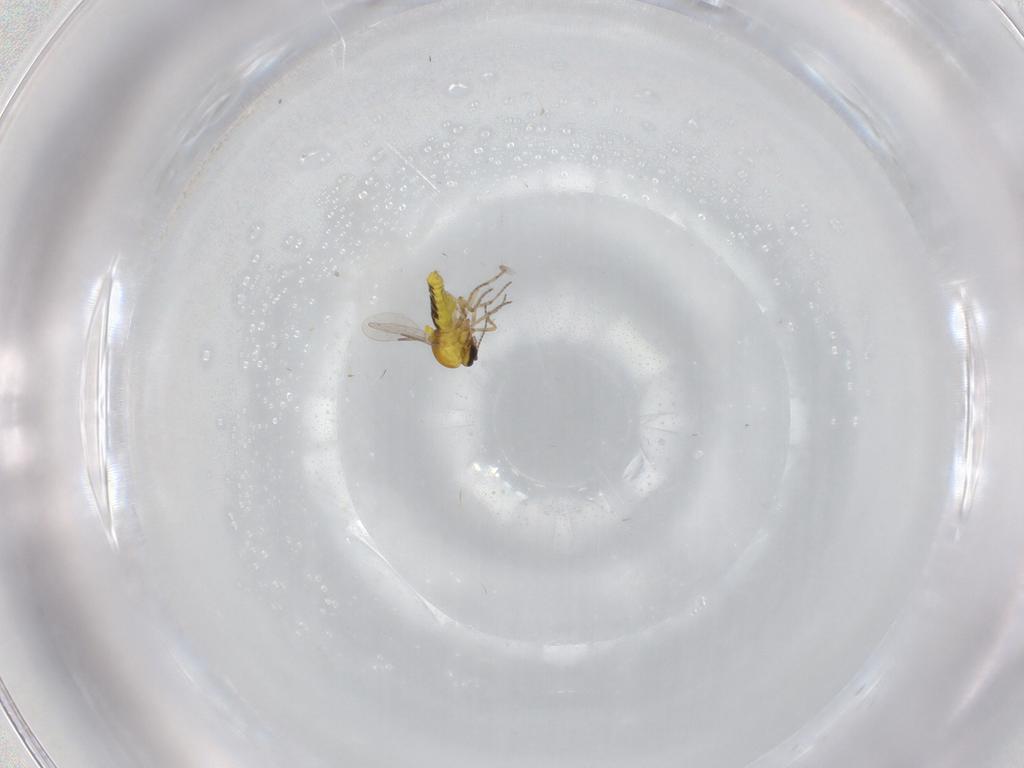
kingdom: Animalia
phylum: Arthropoda
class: Insecta
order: Diptera
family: Ceratopogonidae
